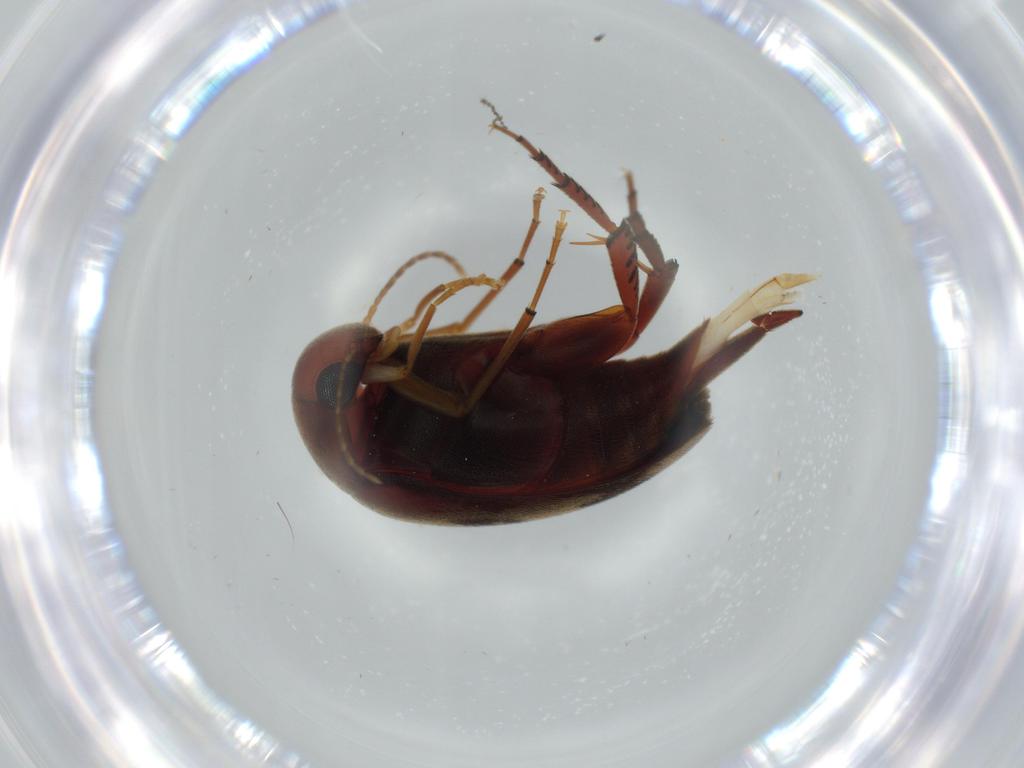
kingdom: Animalia
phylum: Arthropoda
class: Insecta
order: Coleoptera
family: Mordellidae
